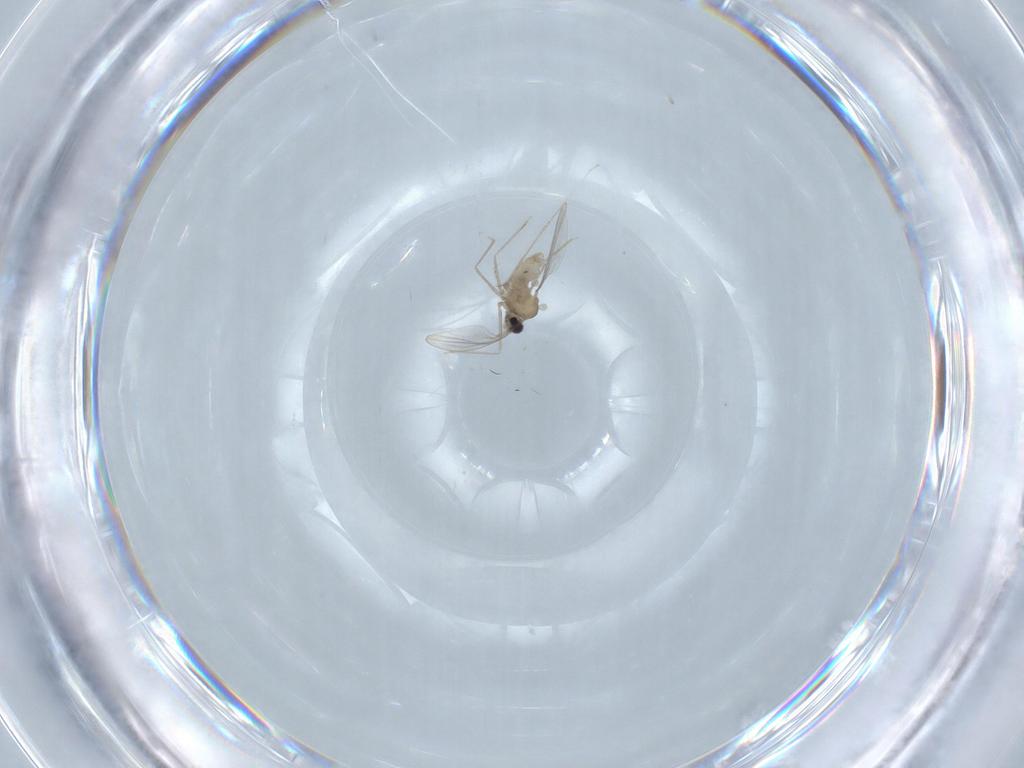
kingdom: Animalia
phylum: Arthropoda
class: Insecta
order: Diptera
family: Cecidomyiidae
